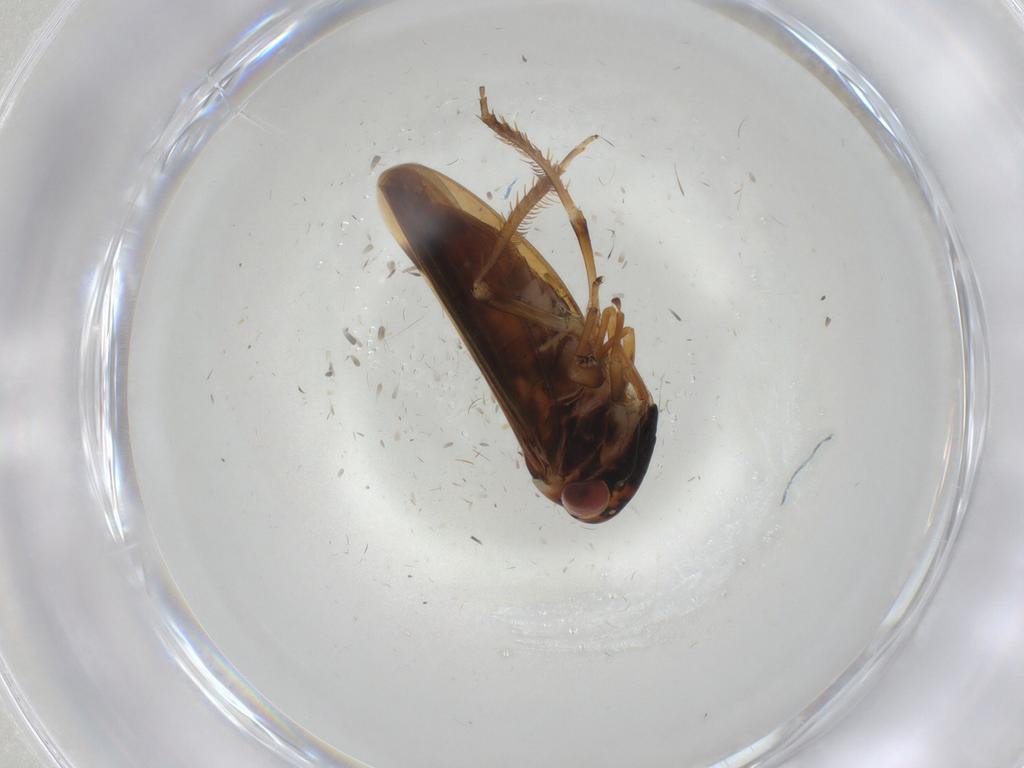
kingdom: Animalia
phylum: Arthropoda
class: Insecta
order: Hemiptera
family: Cicadellidae
